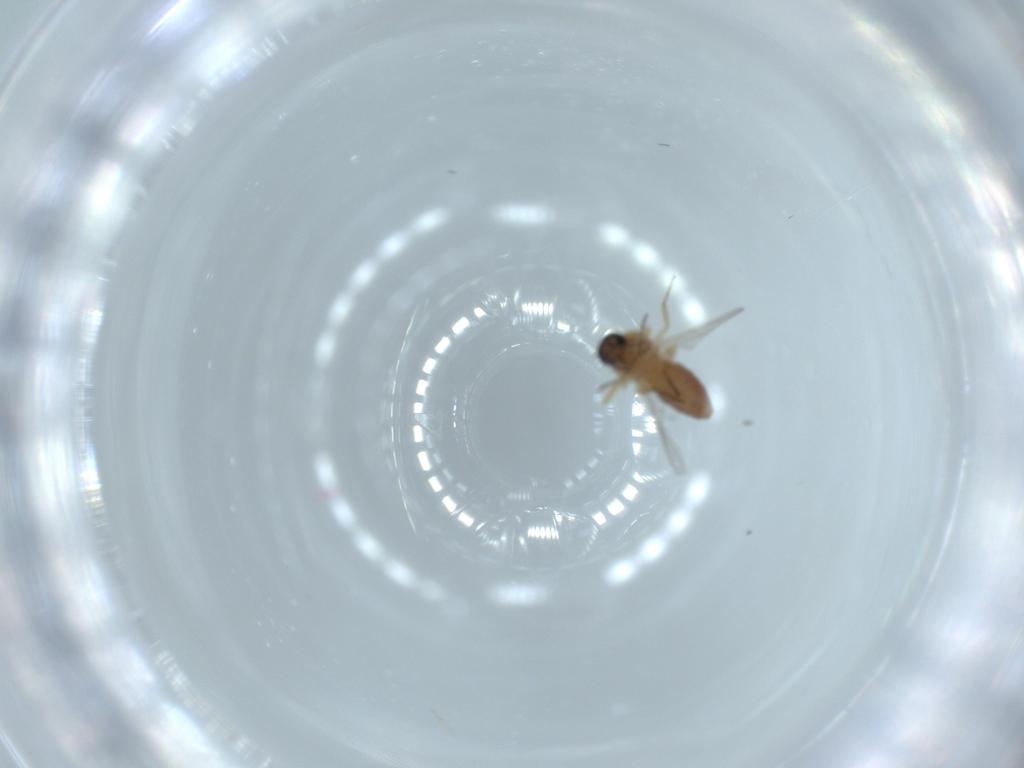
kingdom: Animalia
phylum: Arthropoda
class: Insecta
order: Diptera
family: Ceratopogonidae
